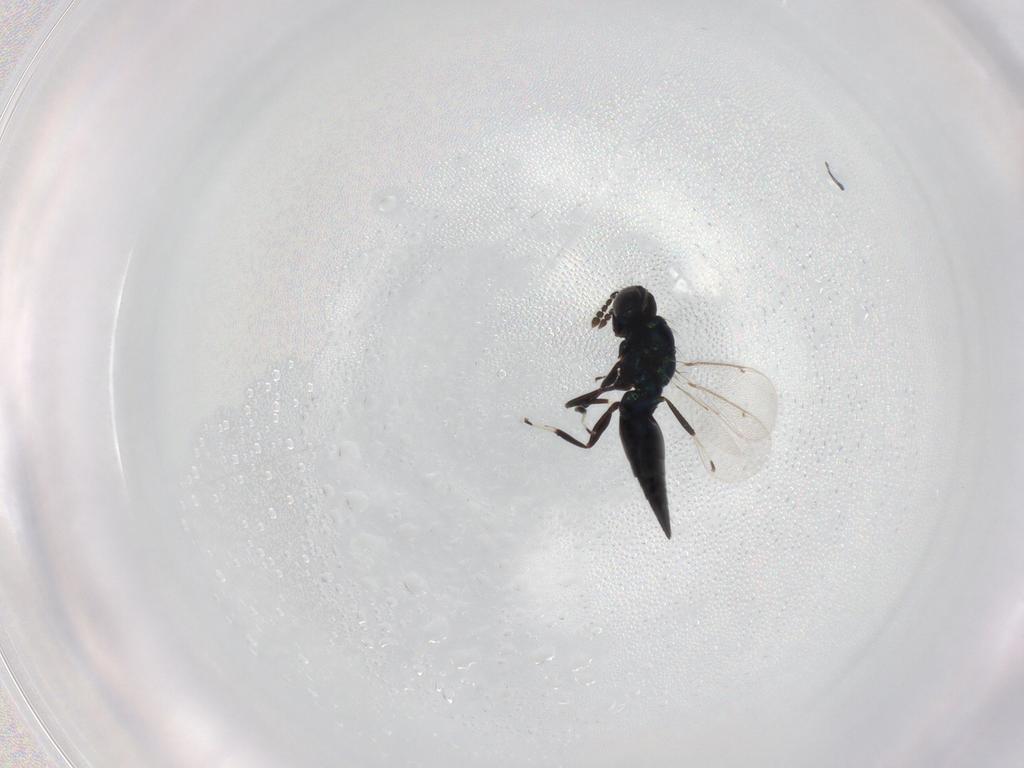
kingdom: Animalia
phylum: Arthropoda
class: Insecta
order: Hymenoptera
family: Eulophidae
